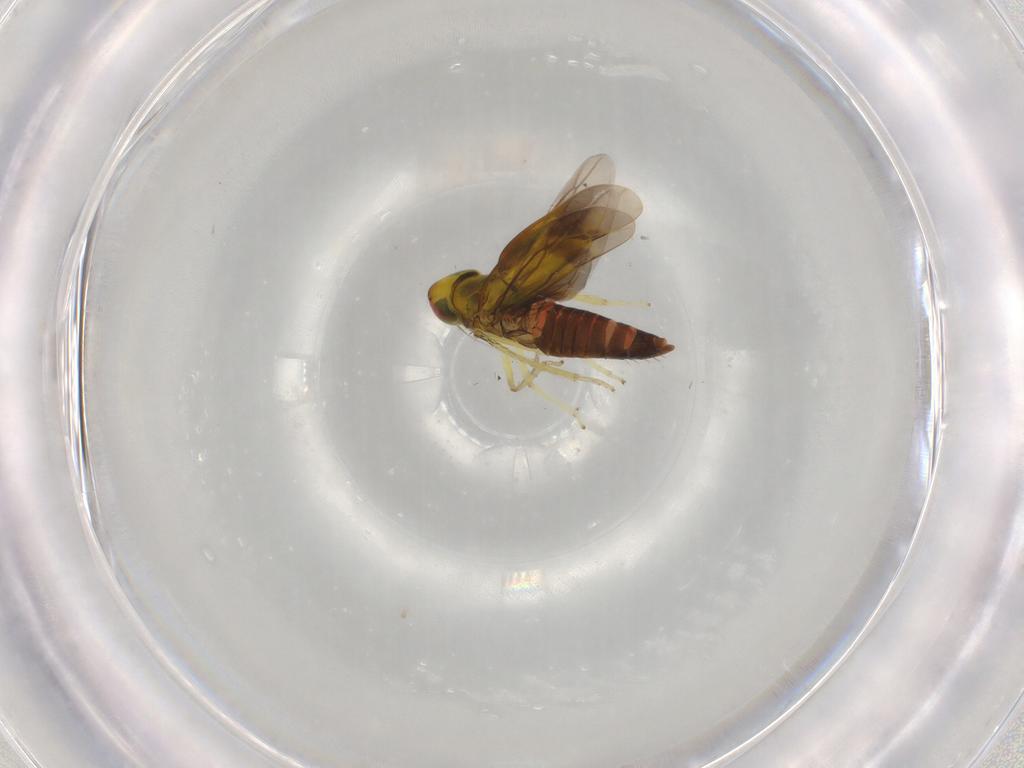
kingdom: Animalia
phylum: Arthropoda
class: Insecta
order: Hemiptera
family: Cicadellidae
